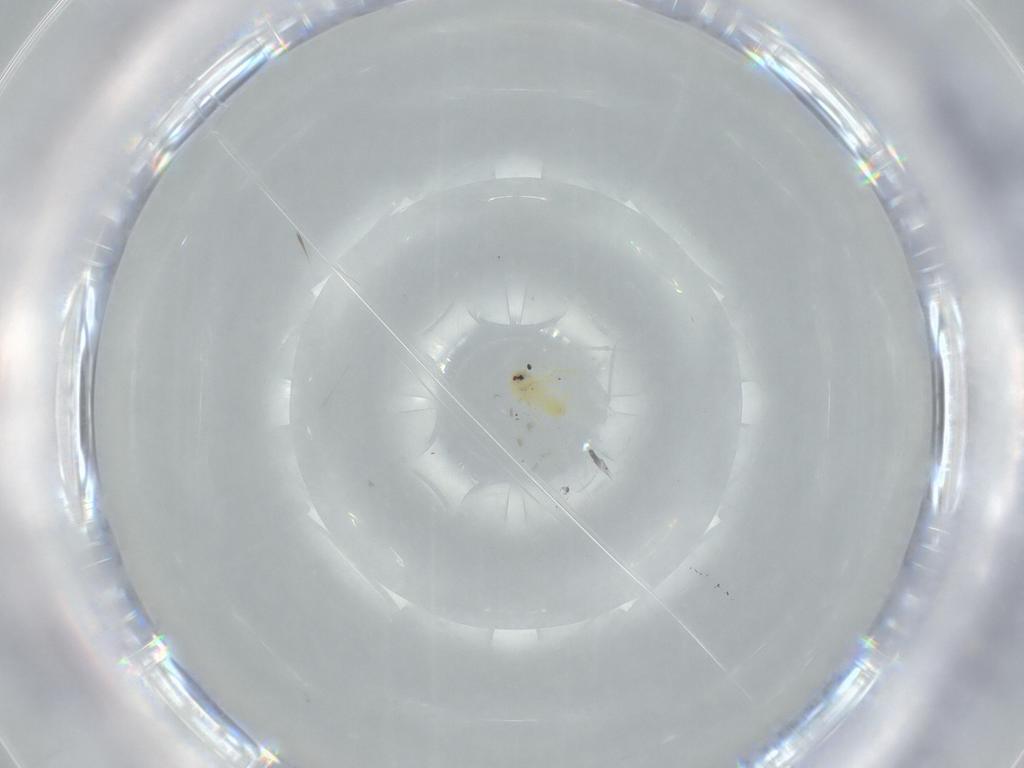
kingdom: Animalia
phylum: Arthropoda
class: Insecta
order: Hemiptera
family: Aleyrodidae
